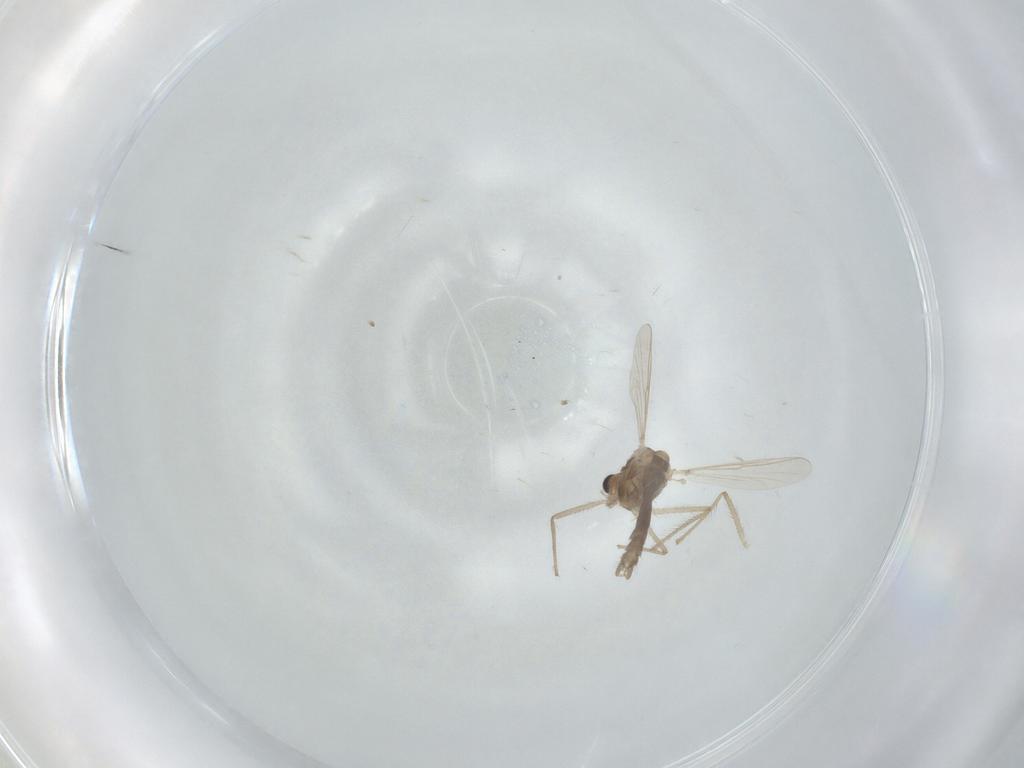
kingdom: Animalia
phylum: Arthropoda
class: Insecta
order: Diptera
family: Chironomidae
